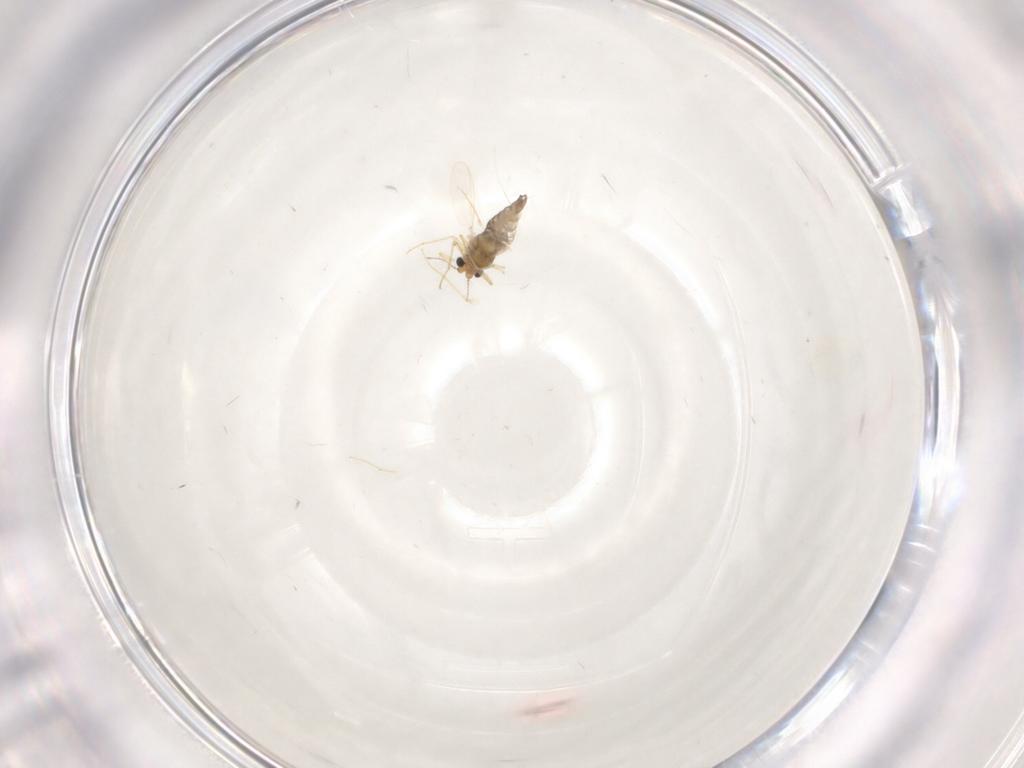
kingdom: Animalia
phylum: Arthropoda
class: Insecta
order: Diptera
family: Chironomidae
